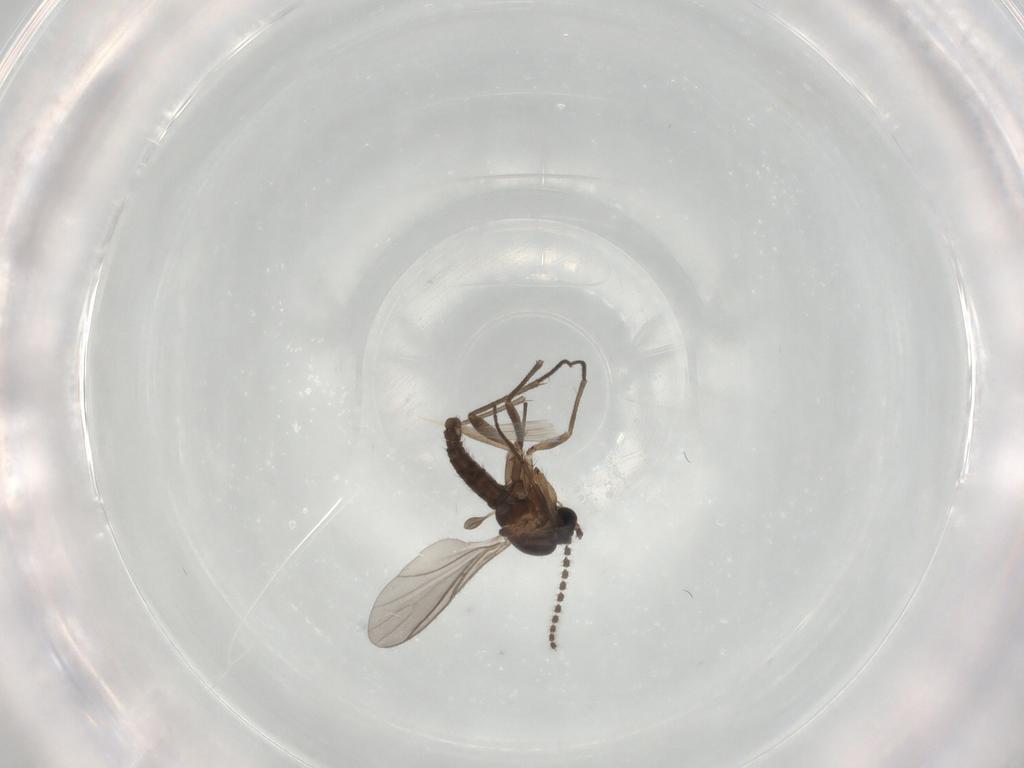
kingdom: Animalia
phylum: Arthropoda
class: Insecta
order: Diptera
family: Sciaridae
